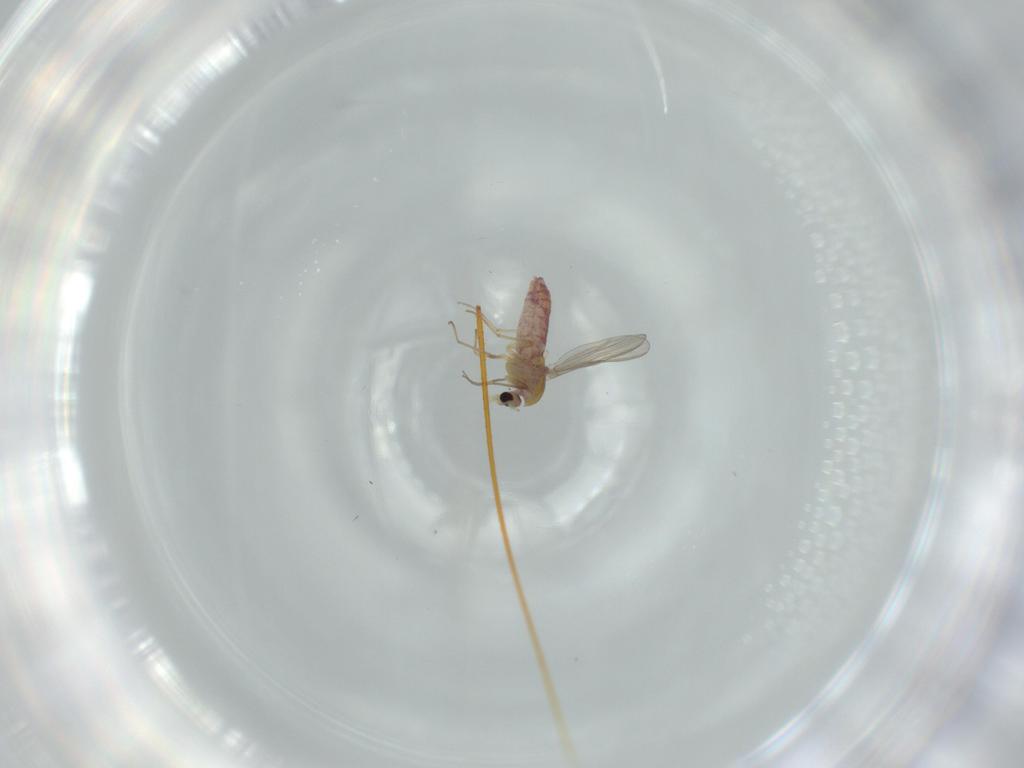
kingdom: Animalia
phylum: Arthropoda
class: Insecta
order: Diptera
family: Chironomidae
